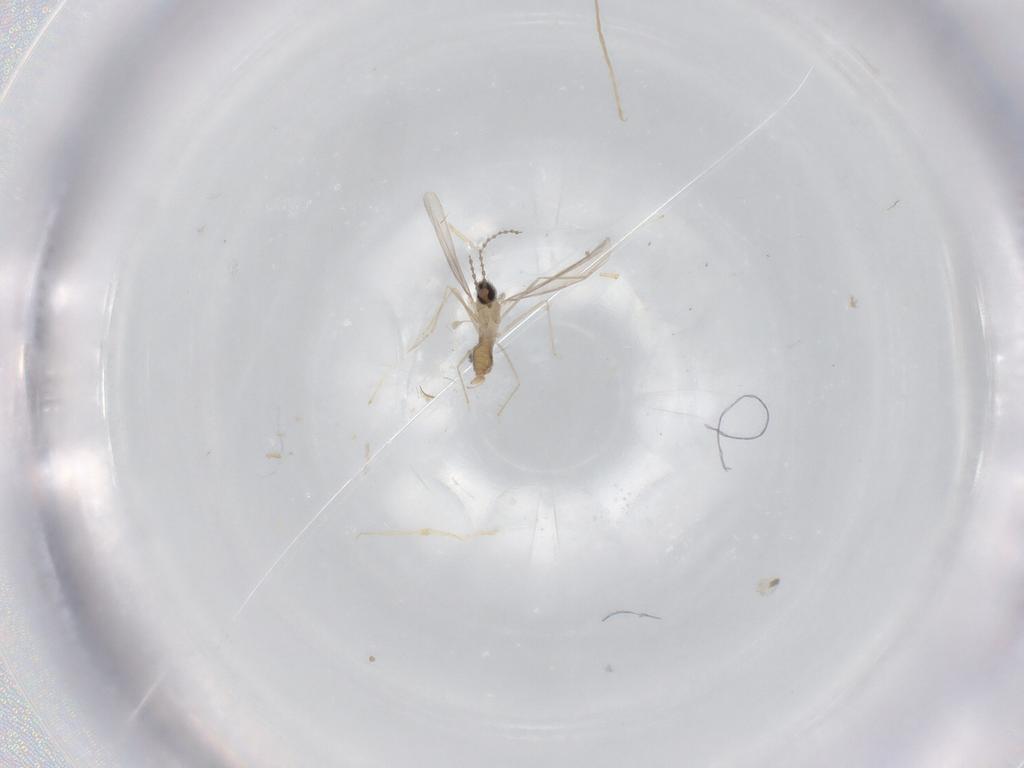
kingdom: Animalia
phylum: Arthropoda
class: Insecta
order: Diptera
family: Cecidomyiidae
